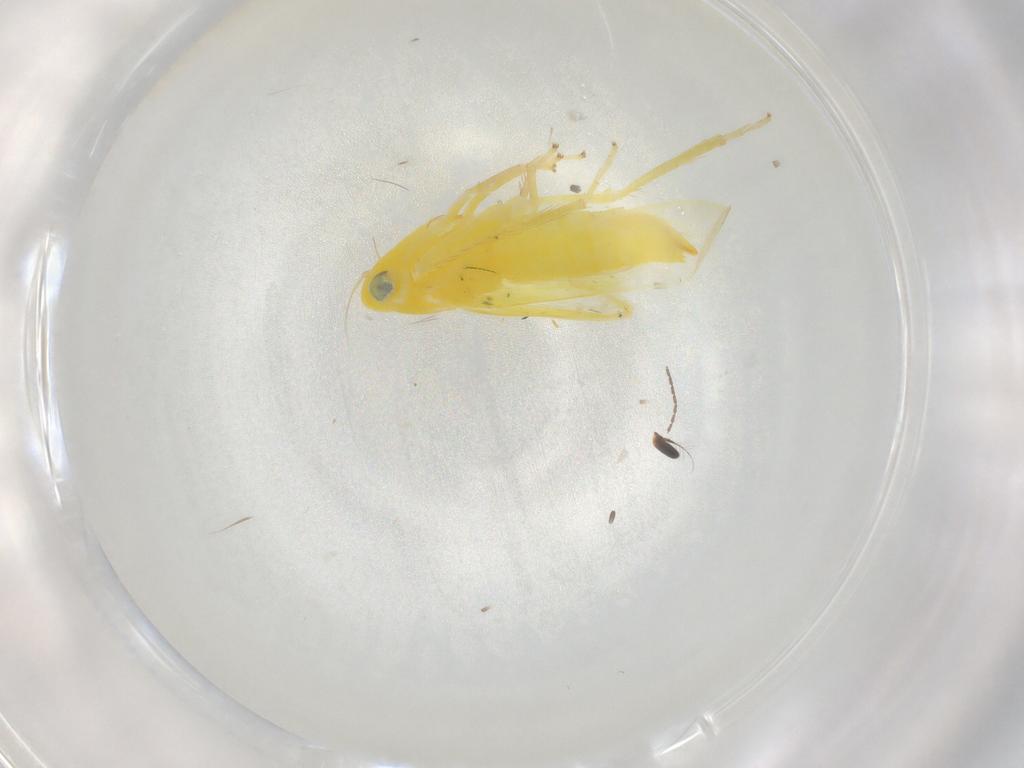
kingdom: Animalia
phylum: Arthropoda
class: Insecta
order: Hemiptera
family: Cicadellidae
